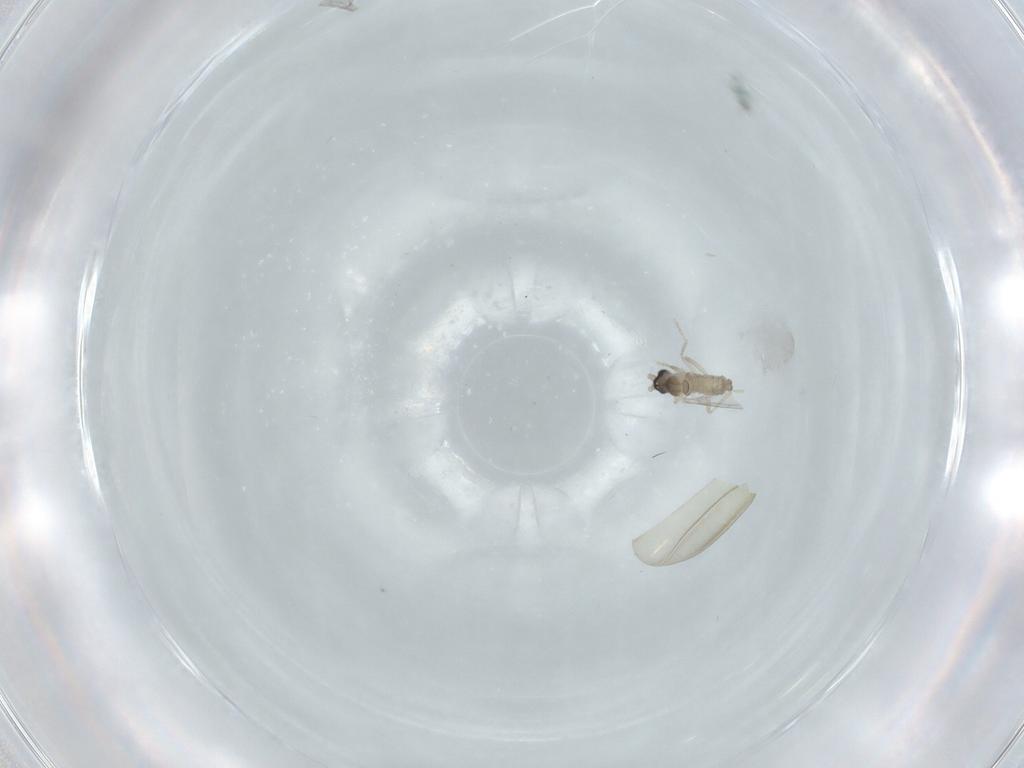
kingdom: Animalia
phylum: Arthropoda
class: Insecta
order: Diptera
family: Cecidomyiidae
